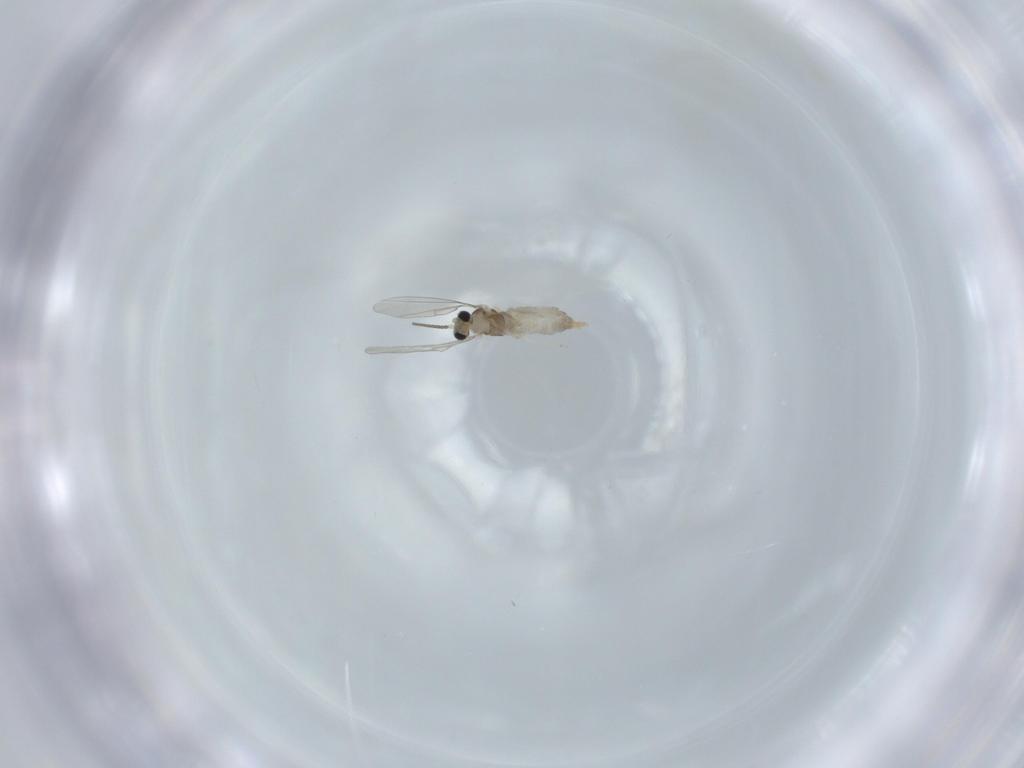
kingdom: Animalia
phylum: Arthropoda
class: Insecta
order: Diptera
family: Cecidomyiidae
